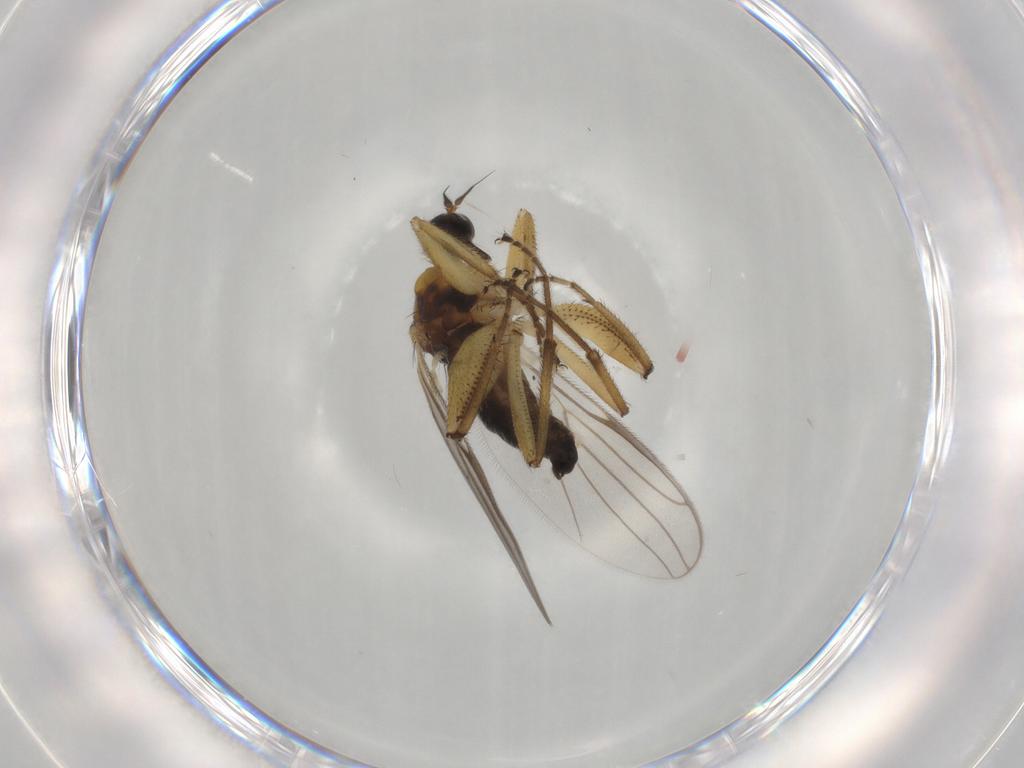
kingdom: Animalia
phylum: Arthropoda
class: Insecta
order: Diptera
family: Hybotidae
